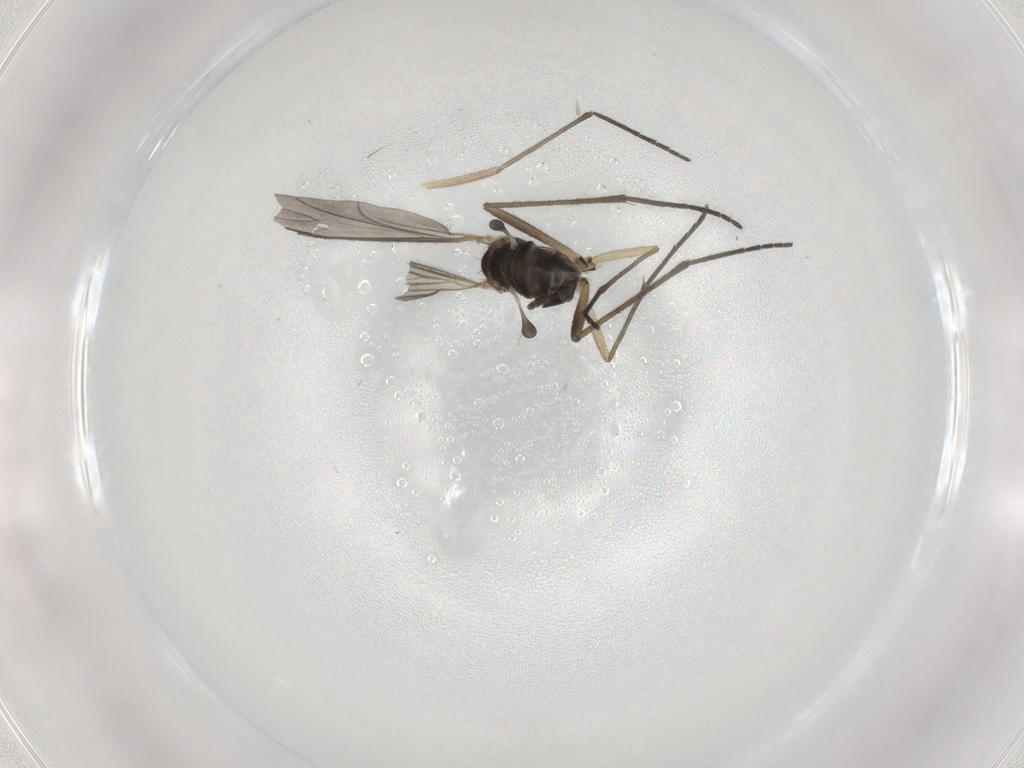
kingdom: Animalia
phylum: Arthropoda
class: Insecta
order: Diptera
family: Sciaridae
